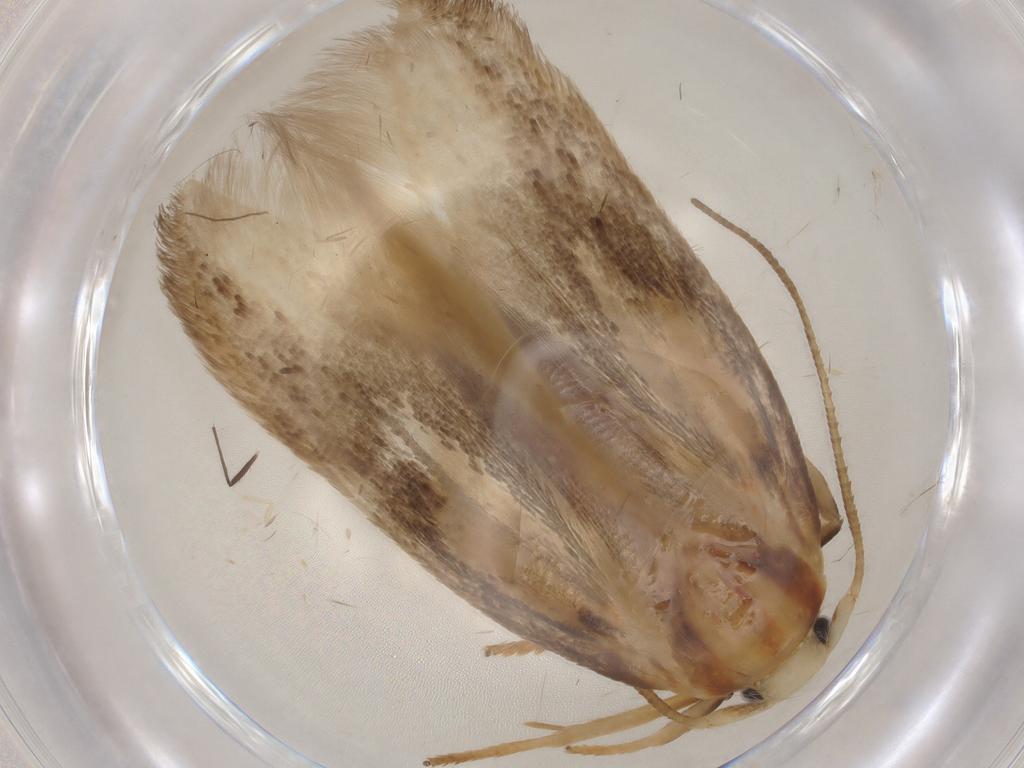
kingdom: Animalia
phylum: Arthropoda
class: Insecta
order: Lepidoptera
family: Geometridae
